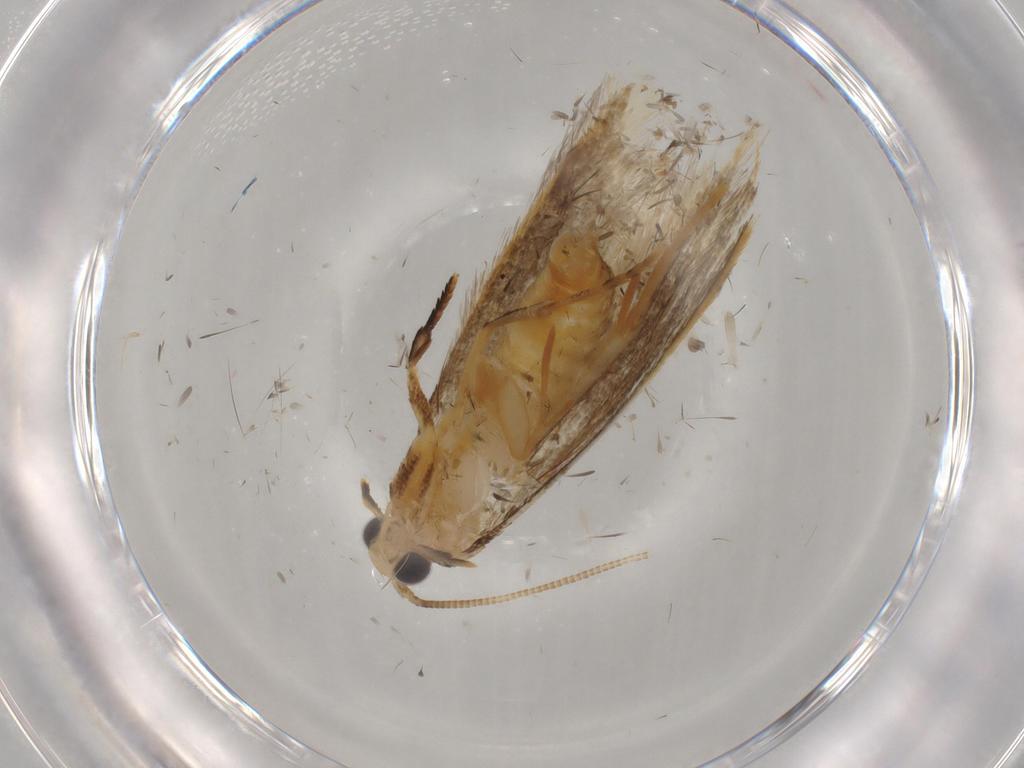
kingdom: Animalia
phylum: Arthropoda
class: Insecta
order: Lepidoptera
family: Tineidae
